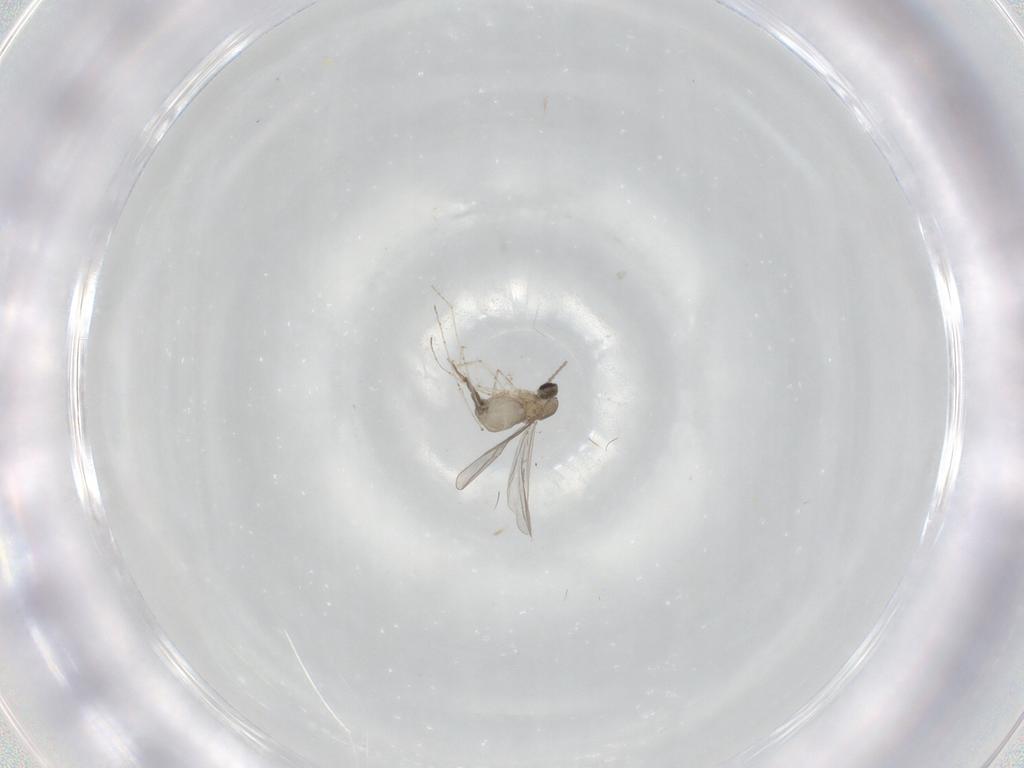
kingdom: Animalia
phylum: Arthropoda
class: Insecta
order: Diptera
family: Cecidomyiidae
